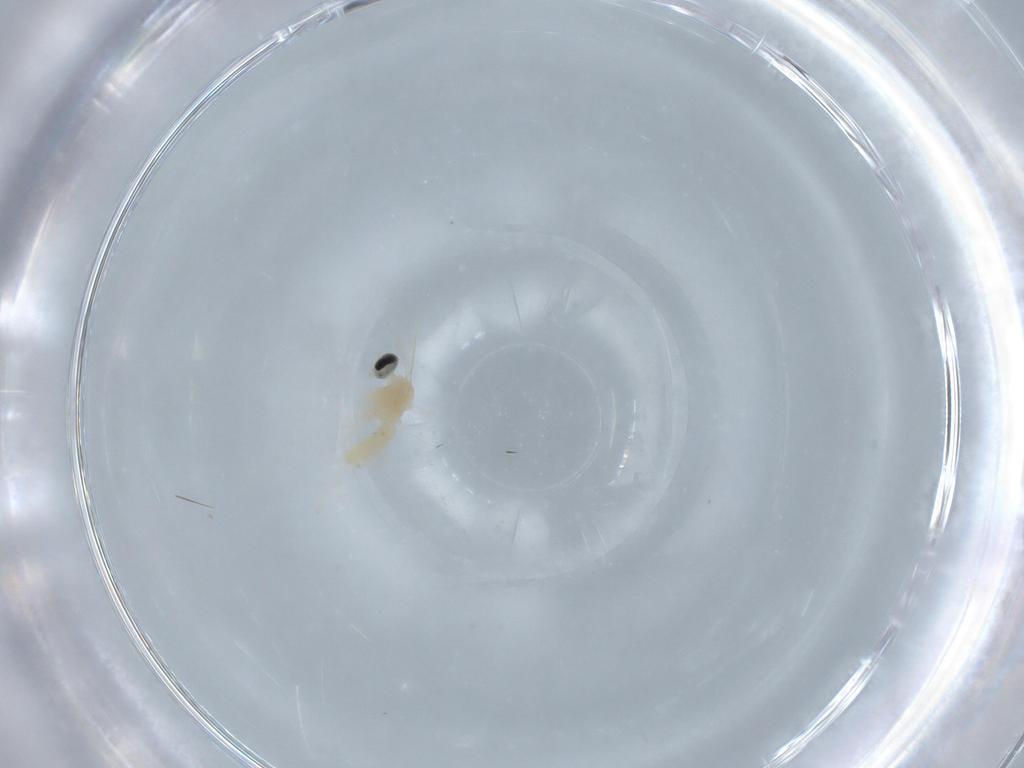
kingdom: Animalia
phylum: Arthropoda
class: Insecta
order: Diptera
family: Cecidomyiidae
